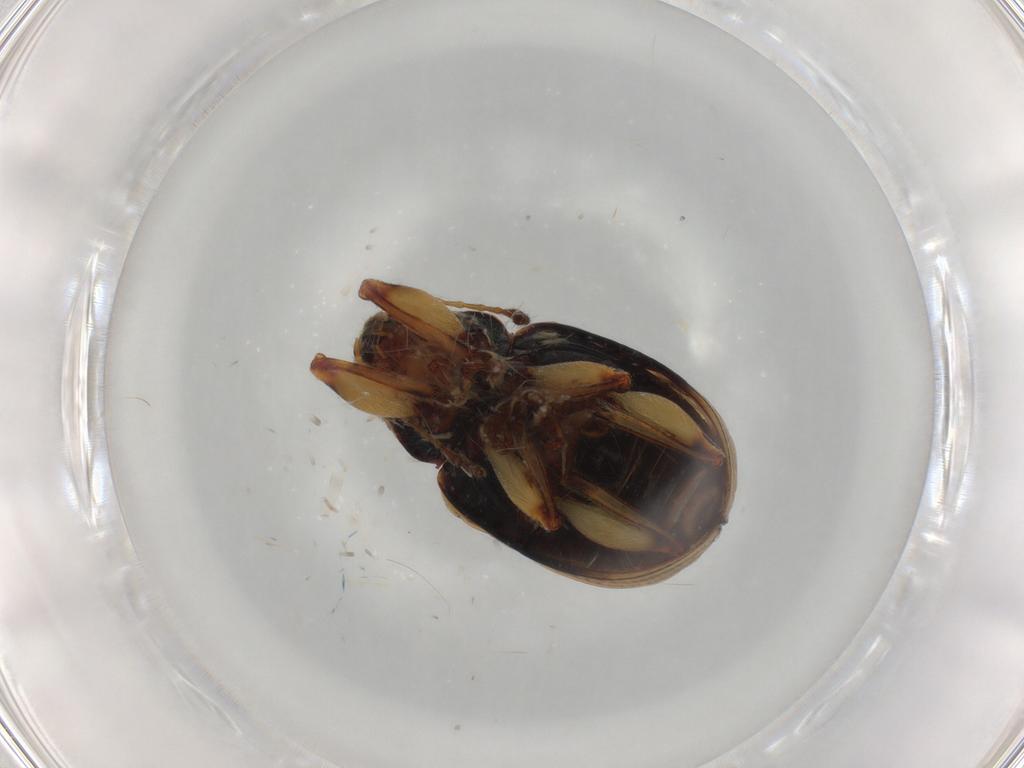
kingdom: Animalia
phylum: Arthropoda
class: Insecta
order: Coleoptera
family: Chrysomelidae
